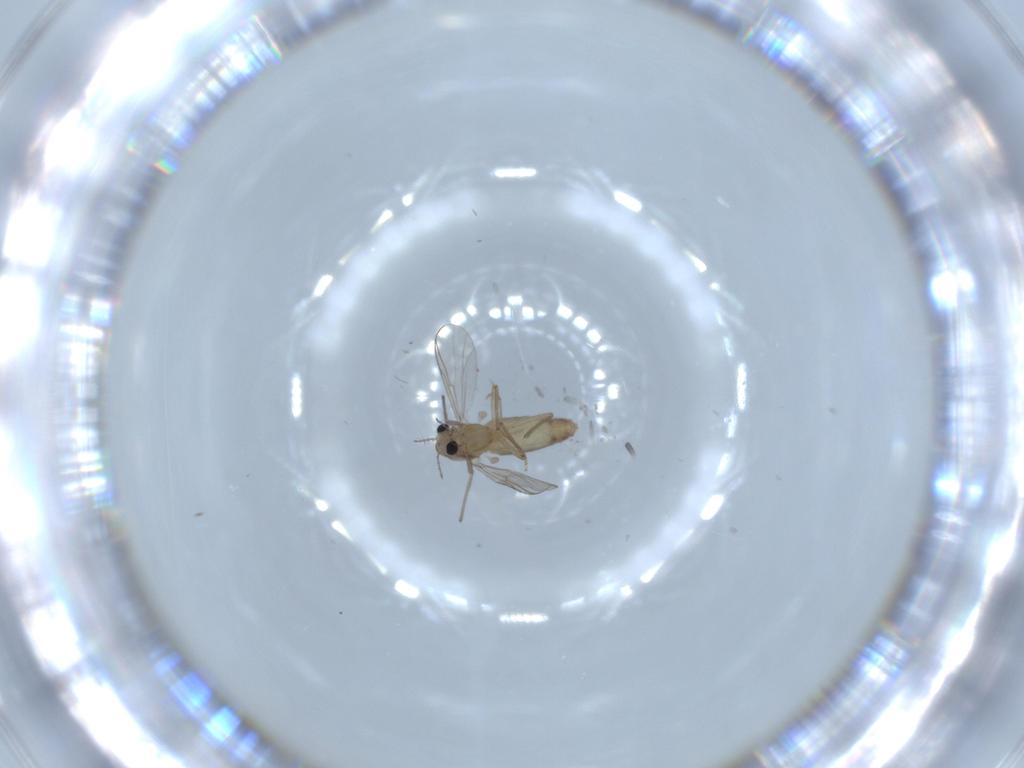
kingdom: Animalia
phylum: Arthropoda
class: Insecta
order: Diptera
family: Chironomidae
